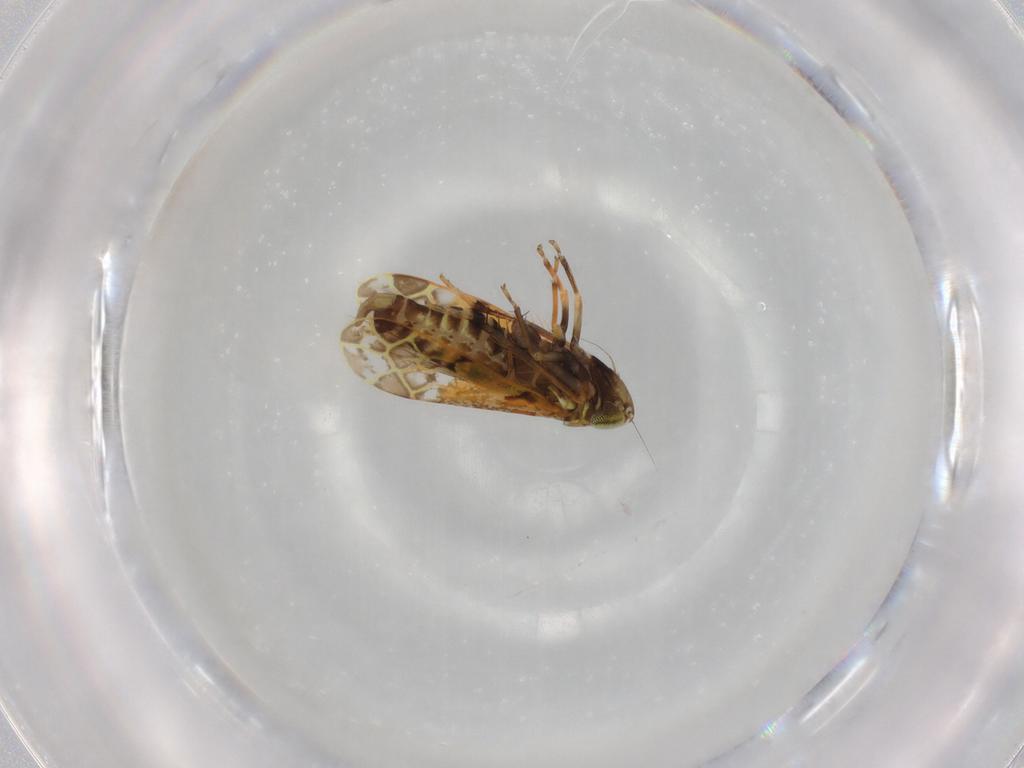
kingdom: Animalia
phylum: Arthropoda
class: Insecta
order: Hemiptera
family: Cicadellidae
